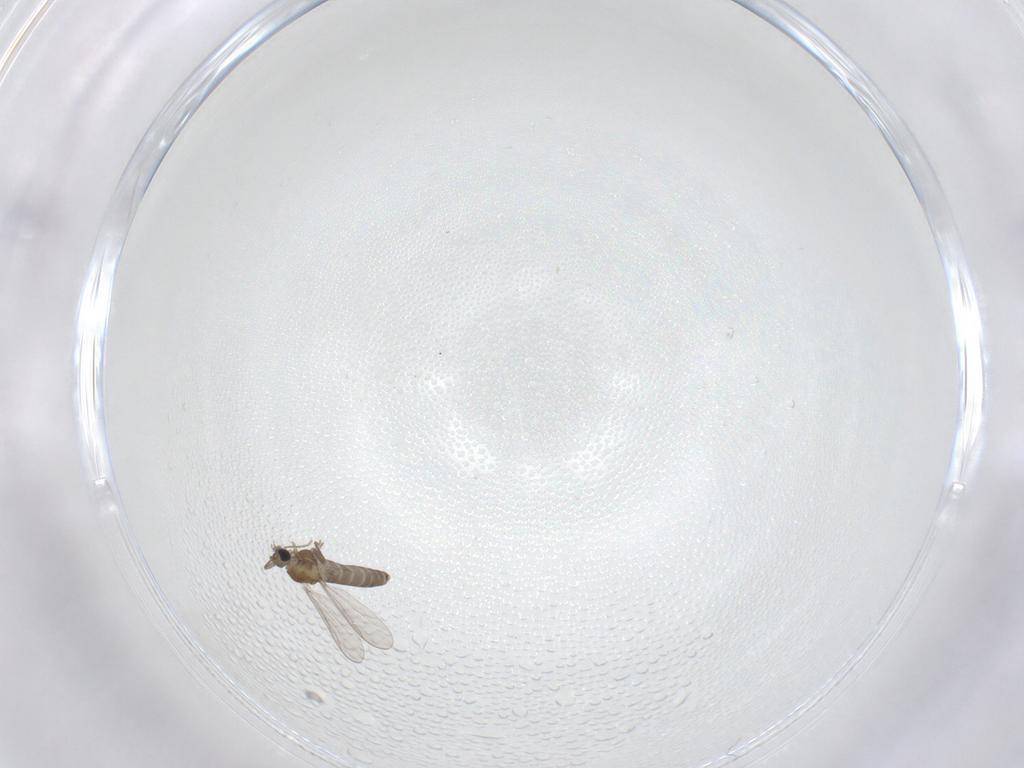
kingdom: Animalia
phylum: Arthropoda
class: Insecta
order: Diptera
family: Chironomidae
